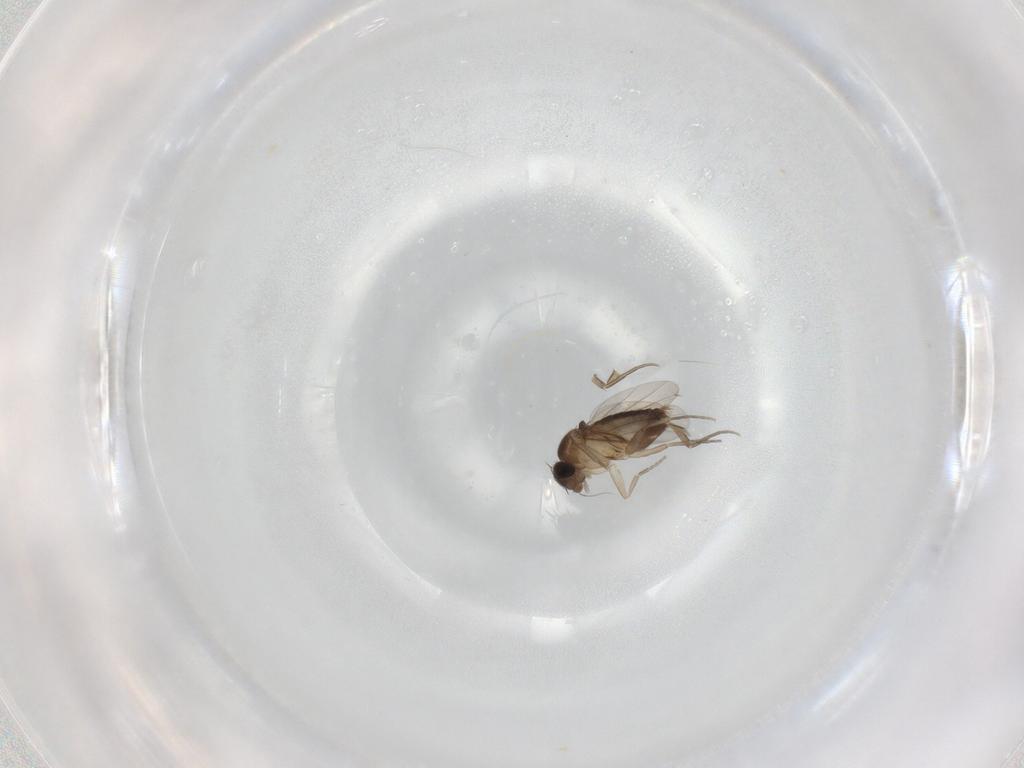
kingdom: Animalia
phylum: Arthropoda
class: Insecta
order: Diptera
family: Phoridae
